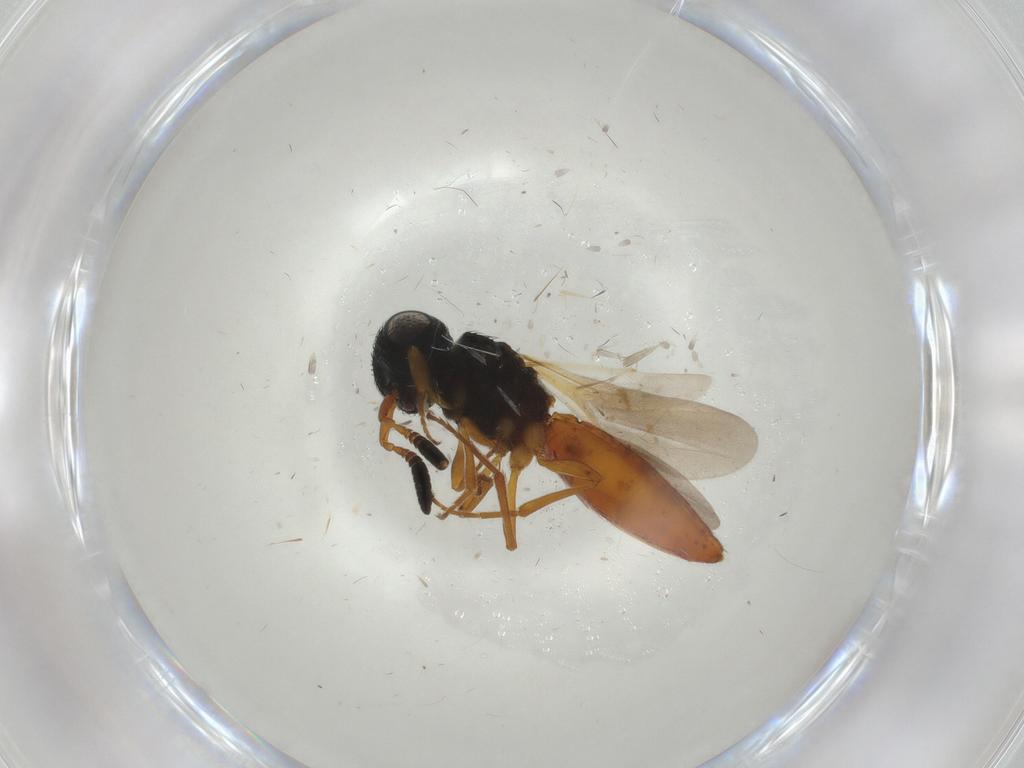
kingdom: Animalia
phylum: Arthropoda
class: Insecta
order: Hymenoptera
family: Scelionidae
